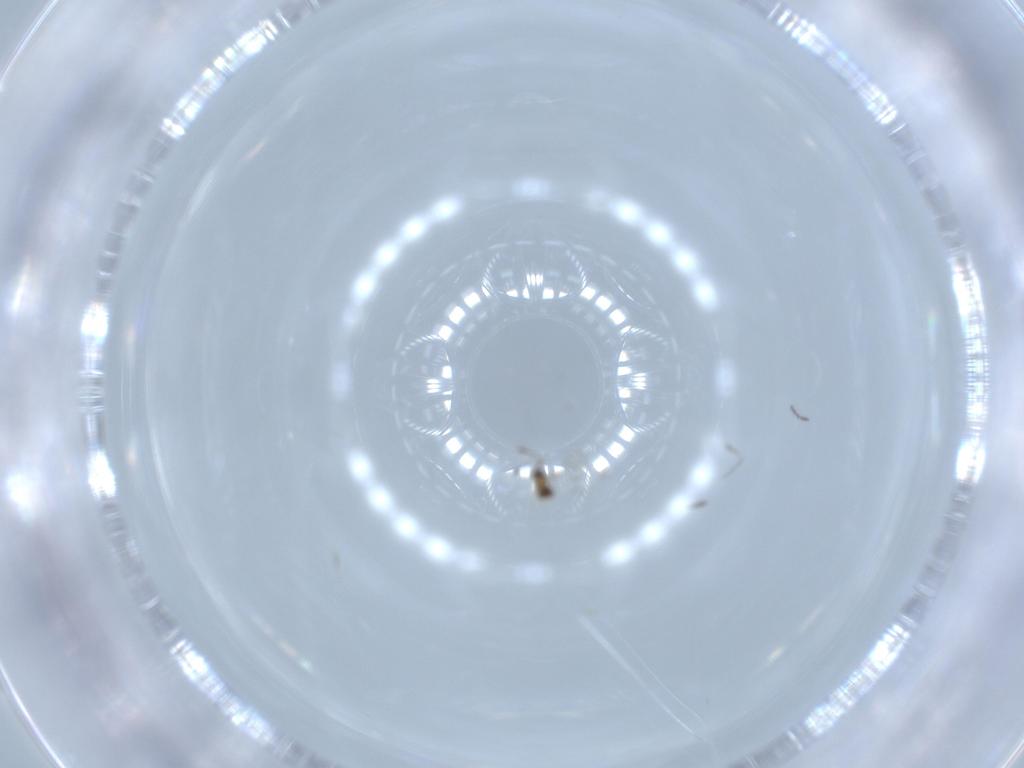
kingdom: Animalia
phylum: Arthropoda
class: Insecta
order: Hymenoptera
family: Mymaridae
